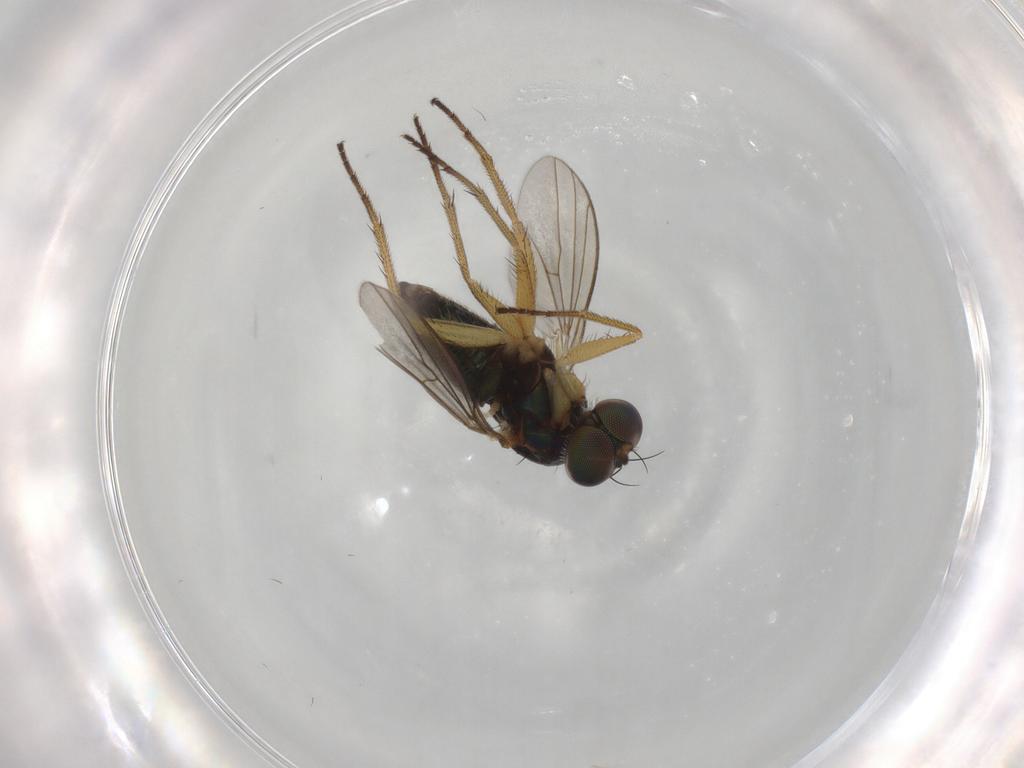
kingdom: Animalia
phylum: Arthropoda
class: Insecta
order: Diptera
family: Dolichopodidae
